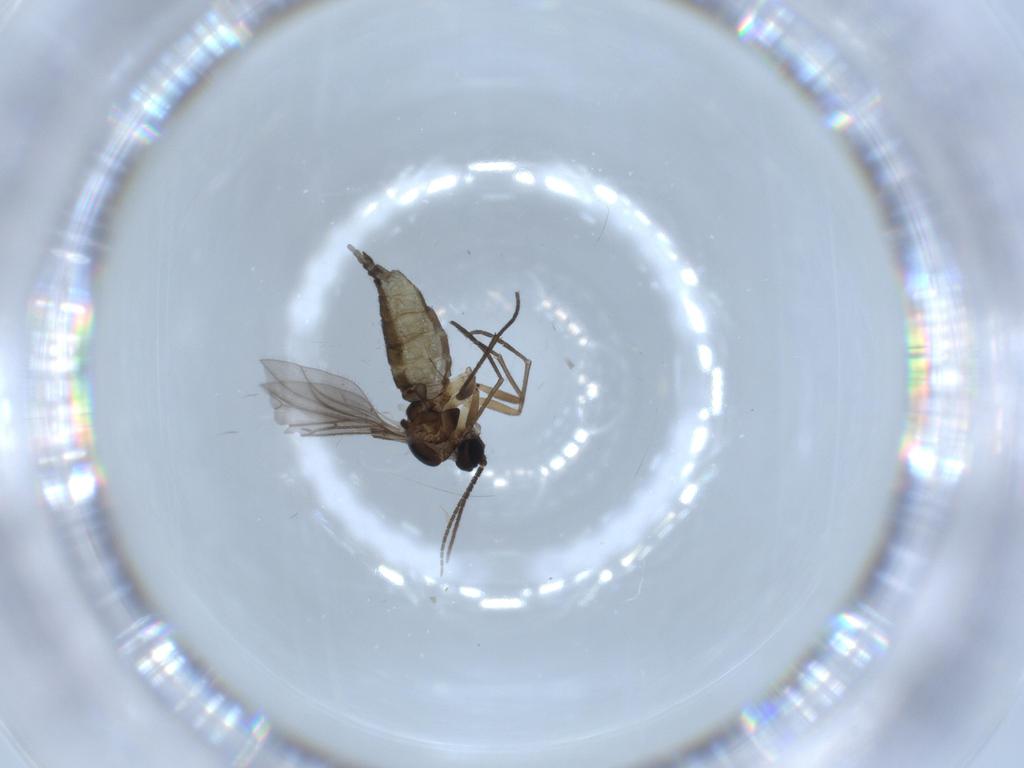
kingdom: Animalia
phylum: Arthropoda
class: Insecta
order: Diptera
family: Sciaridae
